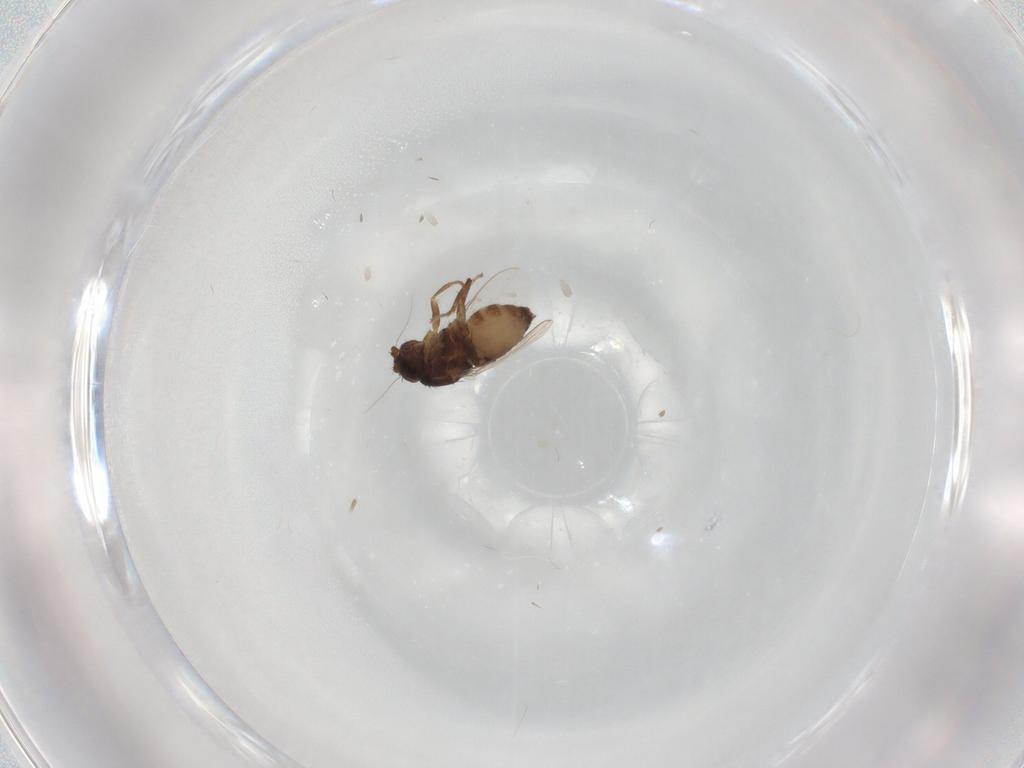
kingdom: Animalia
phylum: Arthropoda
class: Insecta
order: Diptera
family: Sphaeroceridae
